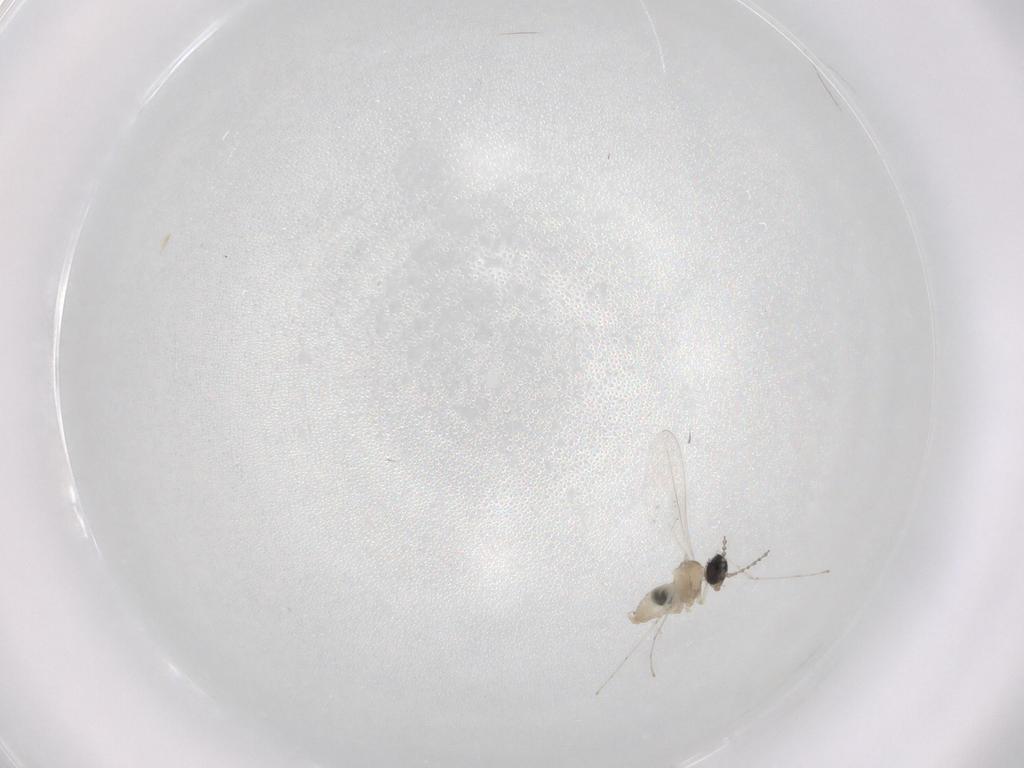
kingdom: Animalia
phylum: Arthropoda
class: Insecta
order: Diptera
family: Cecidomyiidae
